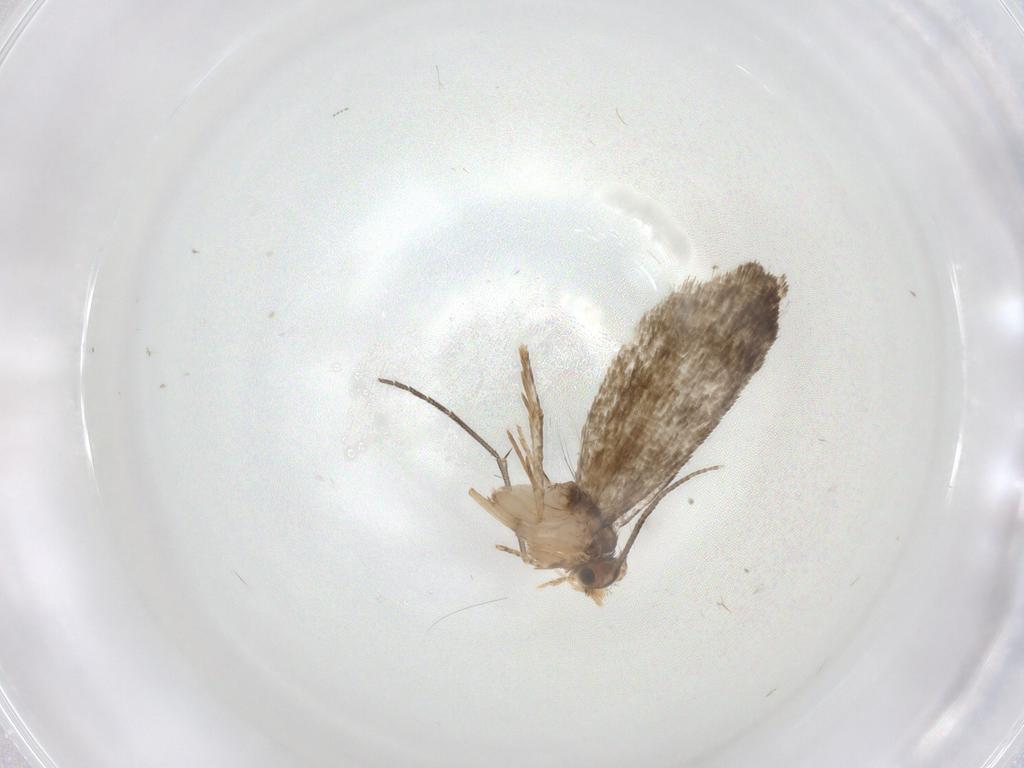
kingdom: Animalia
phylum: Arthropoda
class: Insecta
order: Lepidoptera
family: Tineidae
